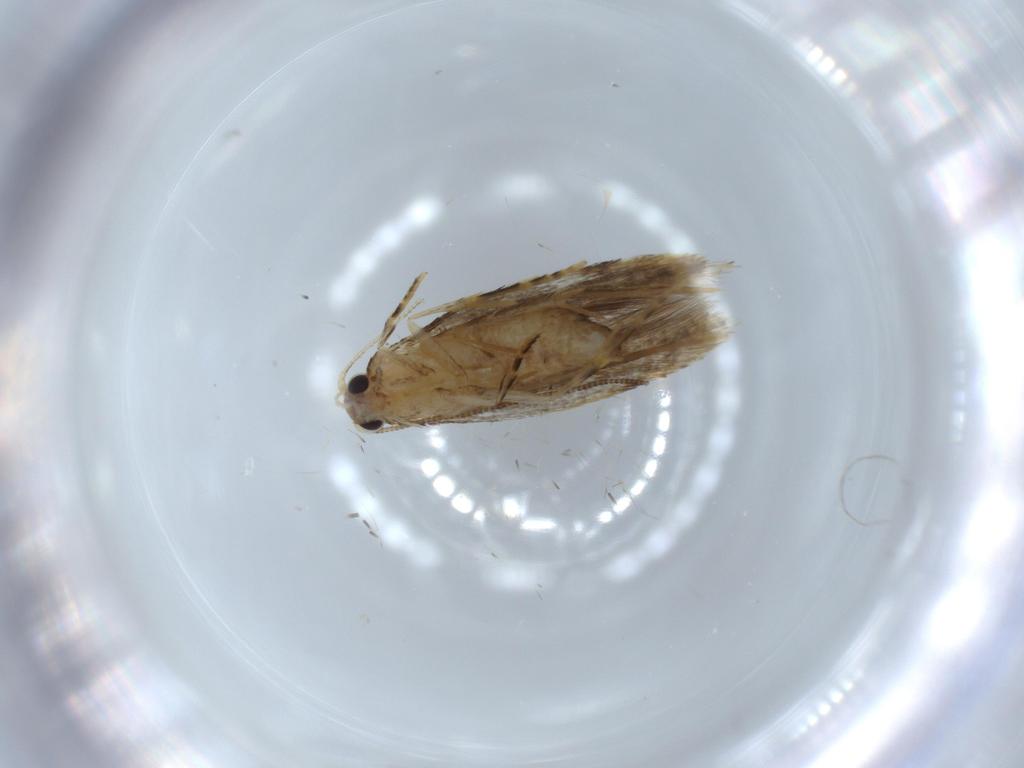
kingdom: Animalia
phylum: Arthropoda
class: Insecta
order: Lepidoptera
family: Tineidae
